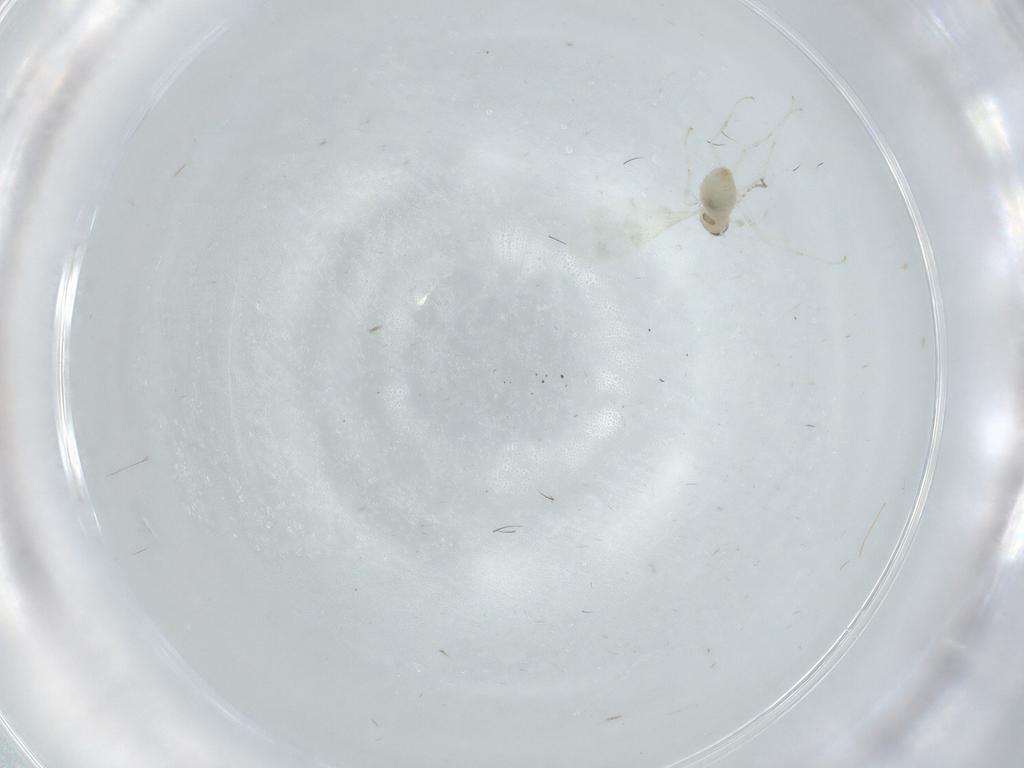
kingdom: Animalia
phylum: Arthropoda
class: Insecta
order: Diptera
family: Cecidomyiidae
